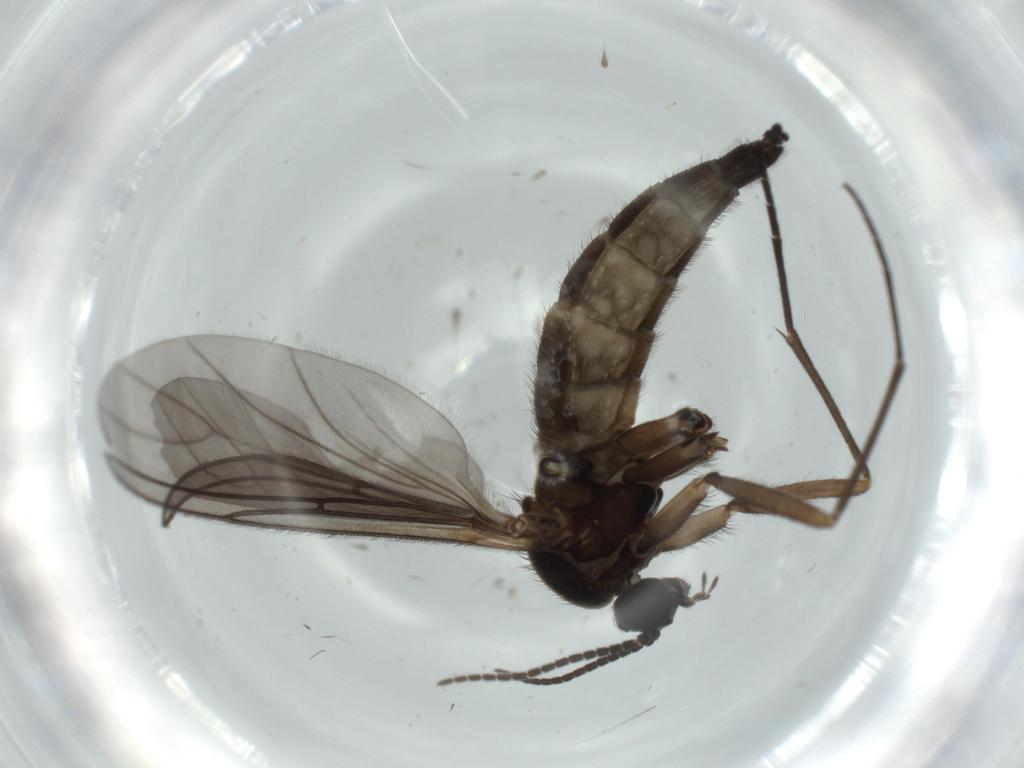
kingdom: Animalia
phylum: Arthropoda
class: Insecta
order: Diptera
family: Sciaridae
